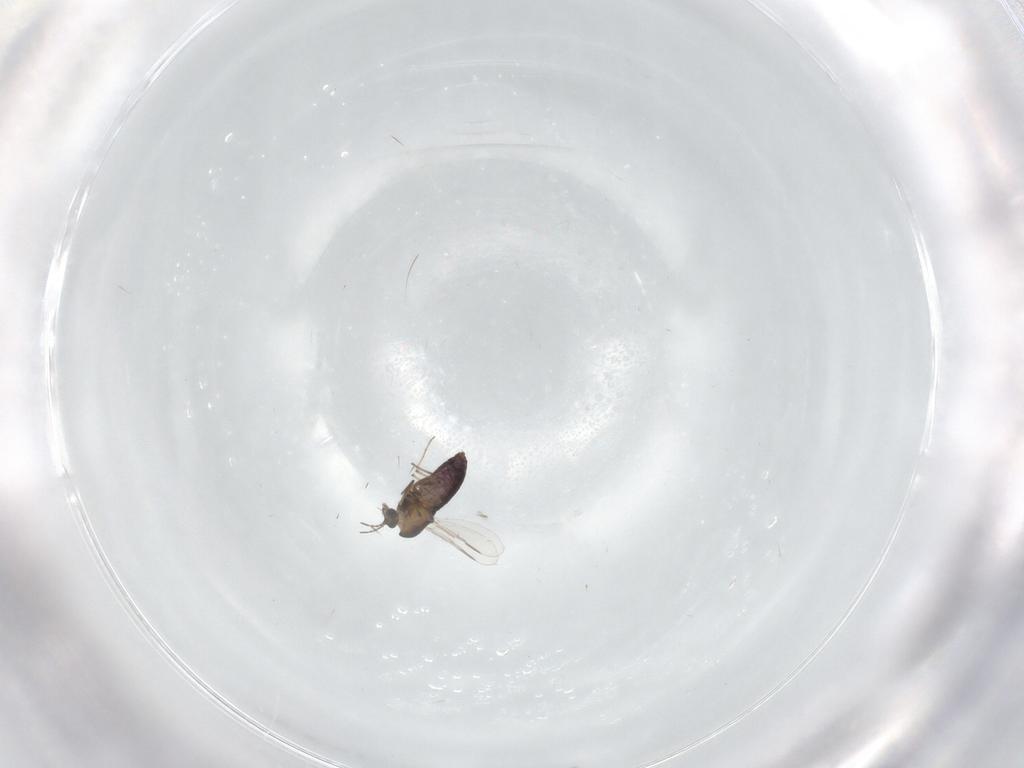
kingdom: Animalia
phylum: Arthropoda
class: Insecta
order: Diptera
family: Chironomidae
